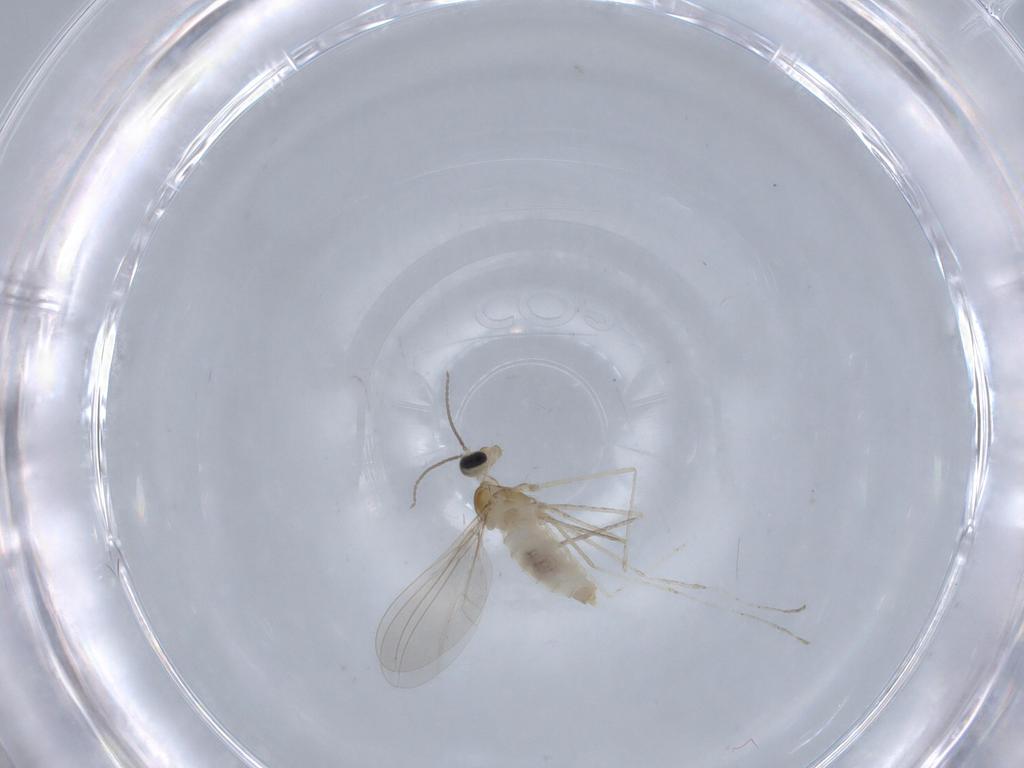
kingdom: Animalia
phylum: Arthropoda
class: Insecta
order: Diptera
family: Cecidomyiidae
